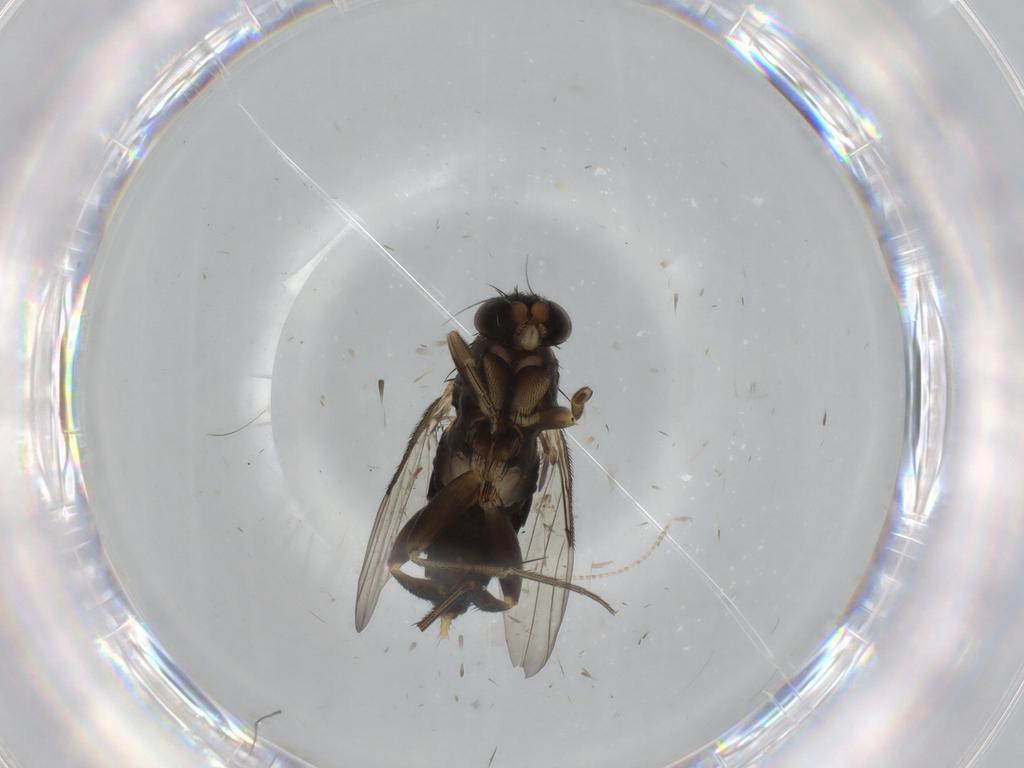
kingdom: Animalia
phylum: Arthropoda
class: Insecta
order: Diptera
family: Phoridae
